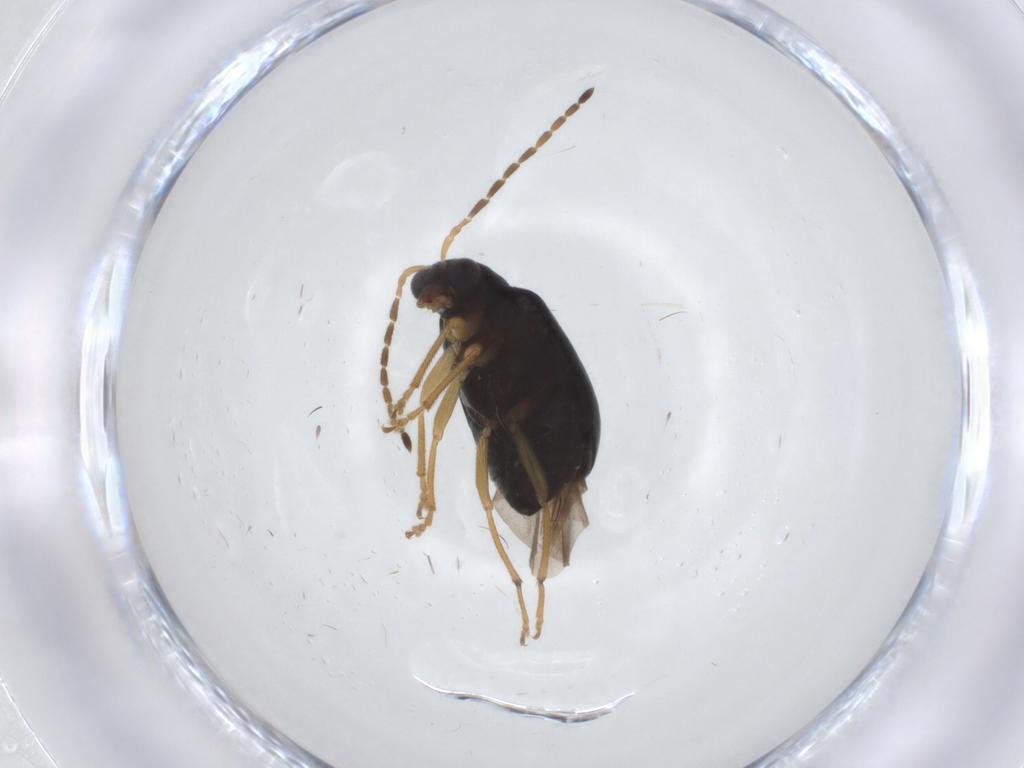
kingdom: Animalia
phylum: Arthropoda
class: Insecta
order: Coleoptera
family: Chrysomelidae
